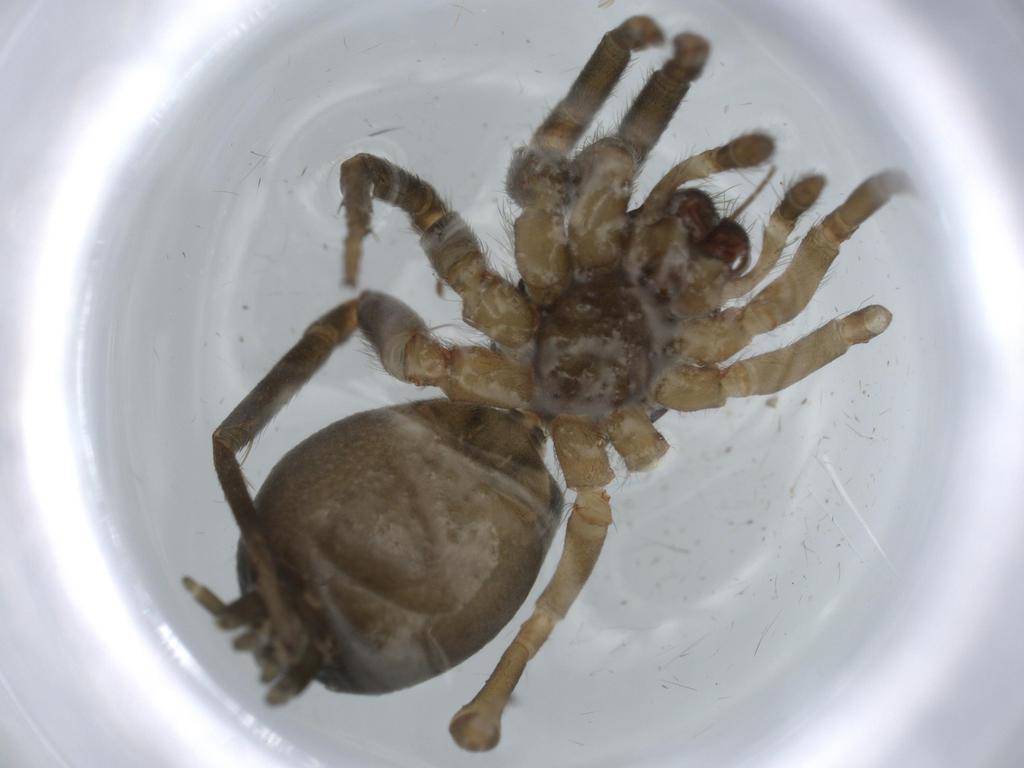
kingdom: Animalia
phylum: Arthropoda
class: Arachnida
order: Araneae
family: Gnaphosidae
